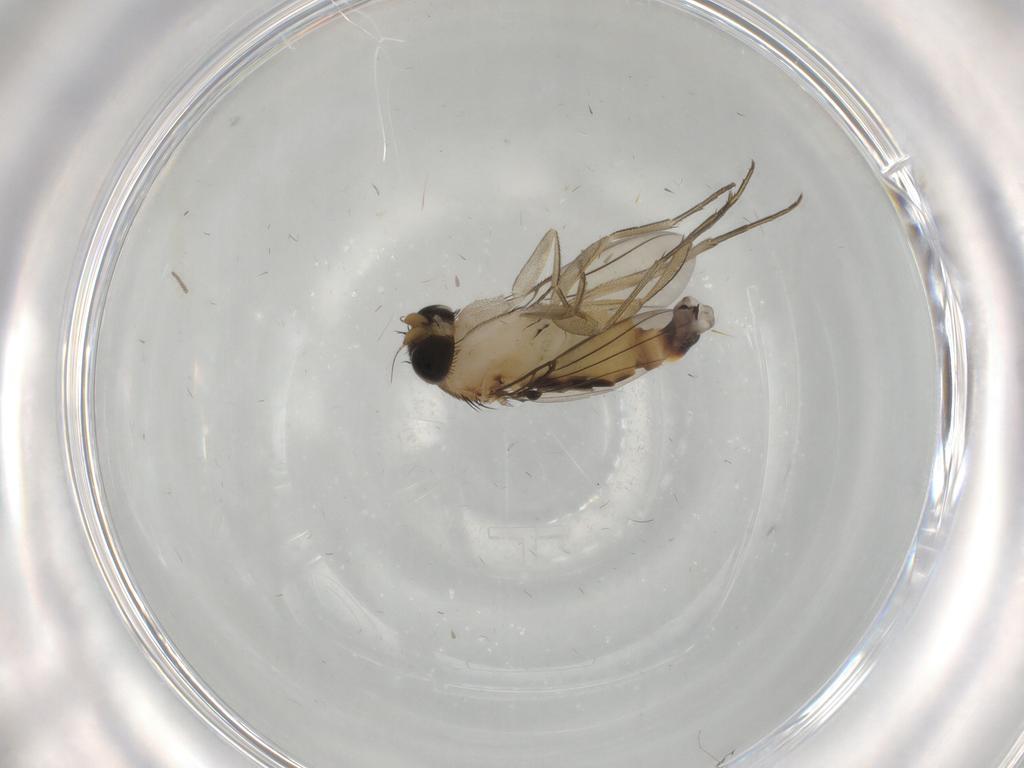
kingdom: Animalia
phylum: Arthropoda
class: Insecta
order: Diptera
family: Phoridae
